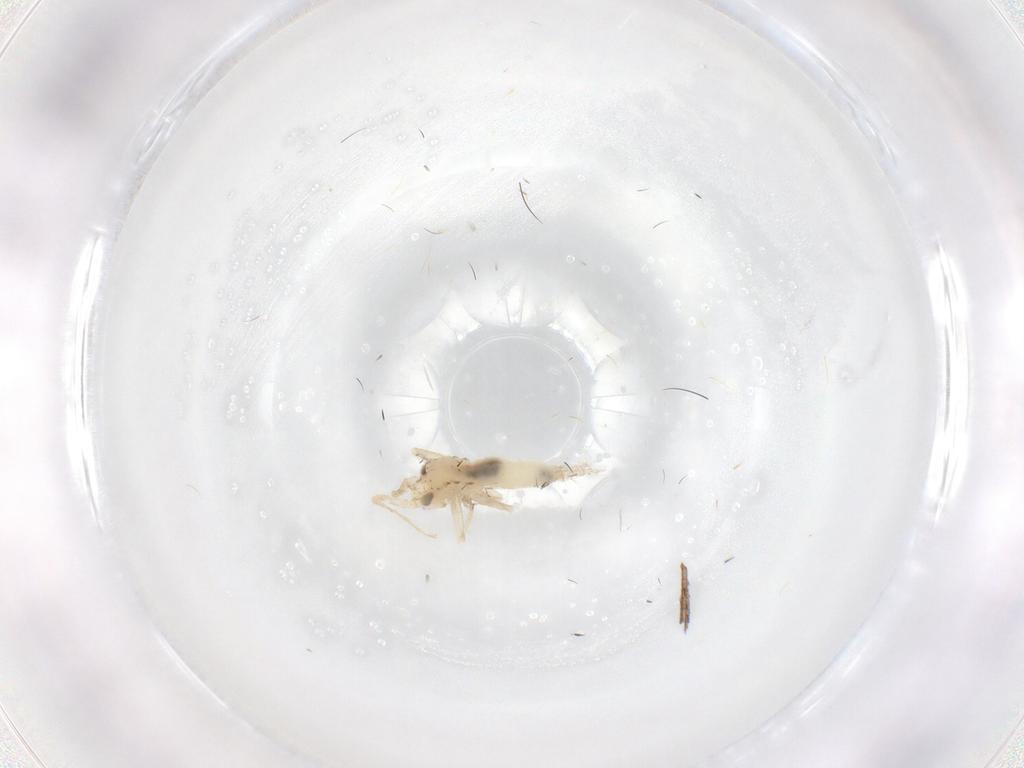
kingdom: Animalia
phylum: Arthropoda
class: Insecta
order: Orthoptera
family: Trigonidiidae
